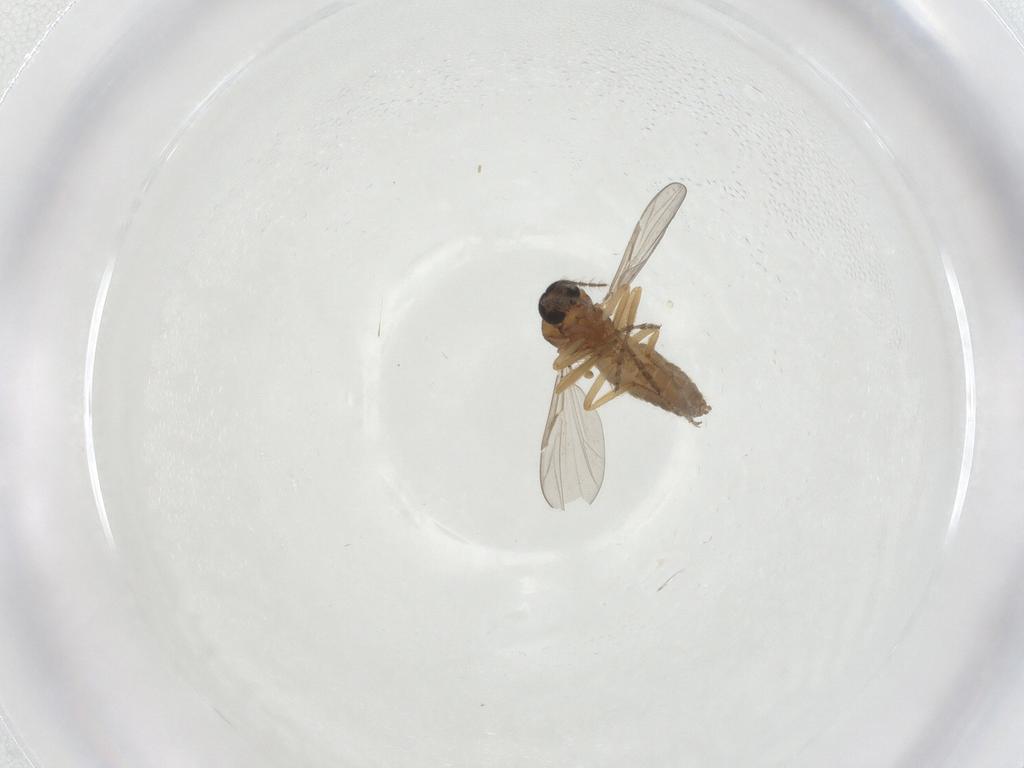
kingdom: Animalia
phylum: Arthropoda
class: Insecta
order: Diptera
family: Ceratopogonidae
